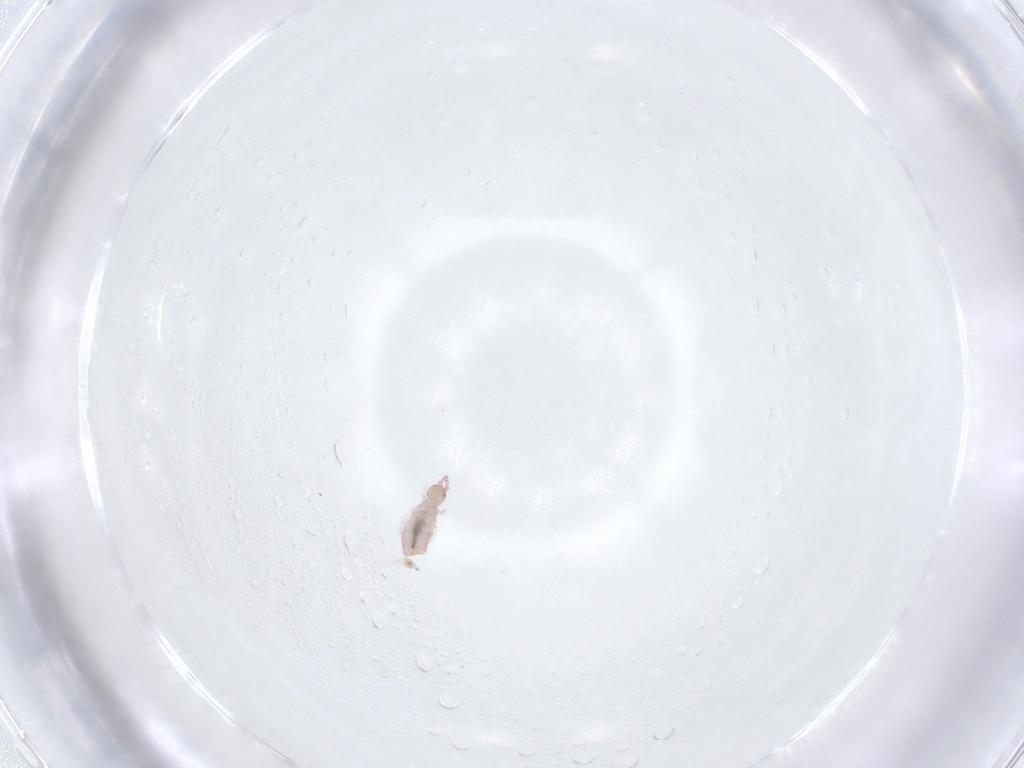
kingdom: Animalia
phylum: Arthropoda
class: Collembola
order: Entomobryomorpha
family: Entomobryidae
